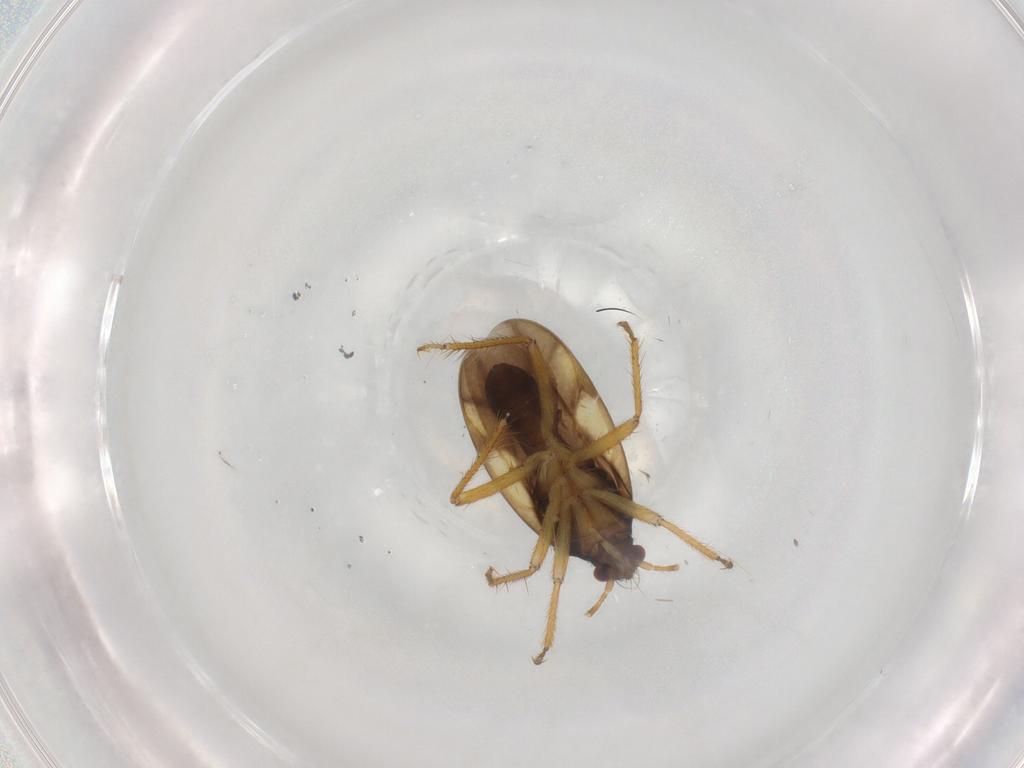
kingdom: Animalia
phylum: Arthropoda
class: Insecta
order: Hemiptera
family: Ceratocombidae
